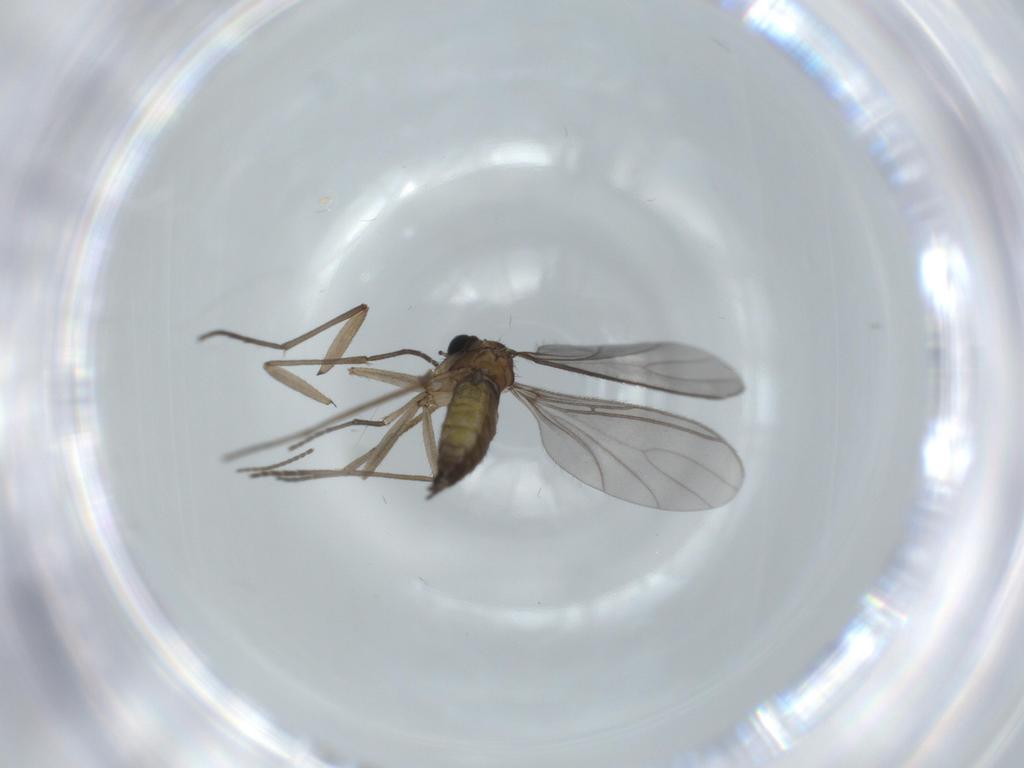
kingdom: Animalia
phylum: Arthropoda
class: Insecta
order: Diptera
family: Sciaridae
